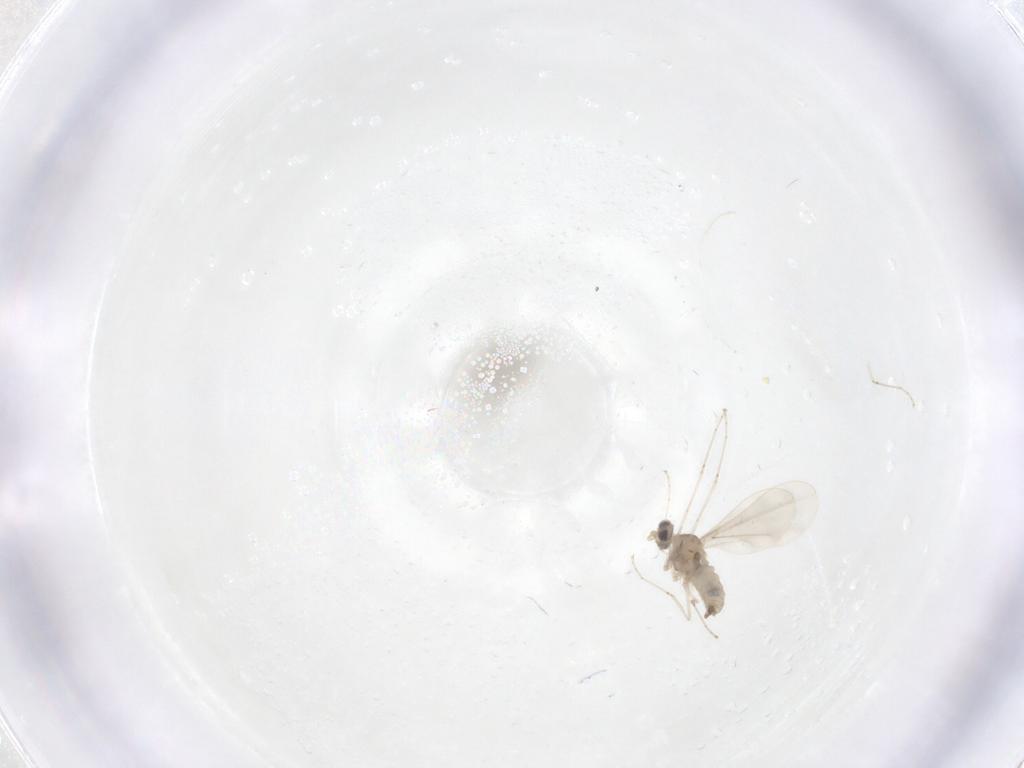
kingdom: Animalia
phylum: Arthropoda
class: Insecta
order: Diptera
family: Cecidomyiidae
